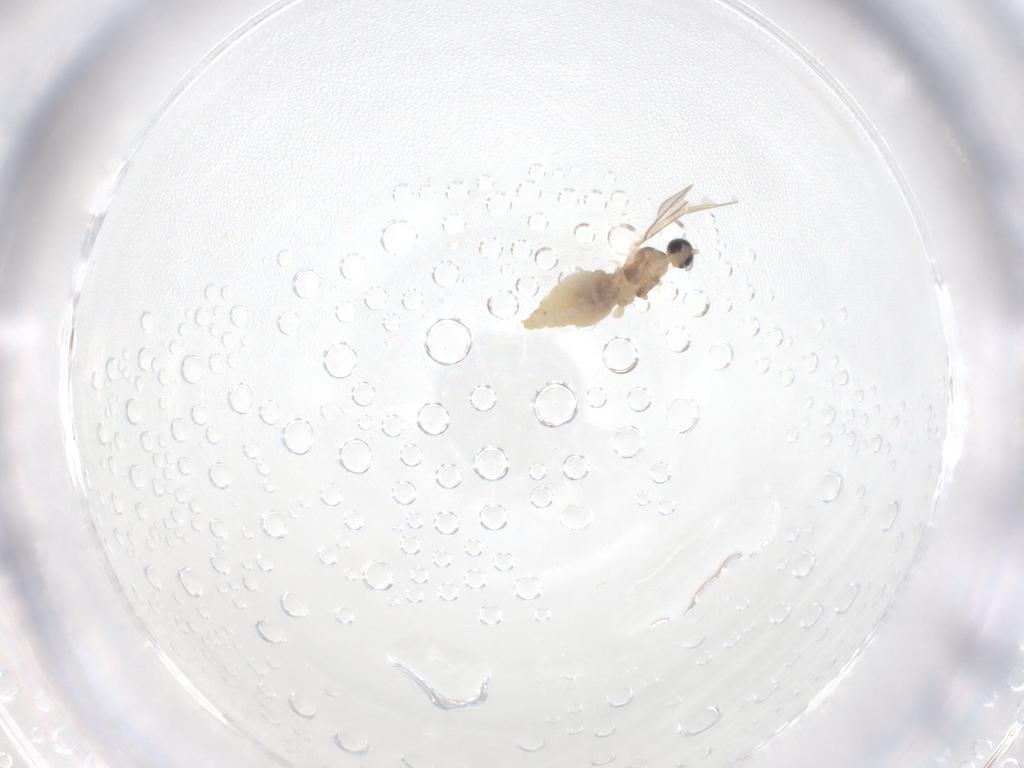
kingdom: Animalia
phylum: Arthropoda
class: Insecta
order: Diptera
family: Cecidomyiidae
